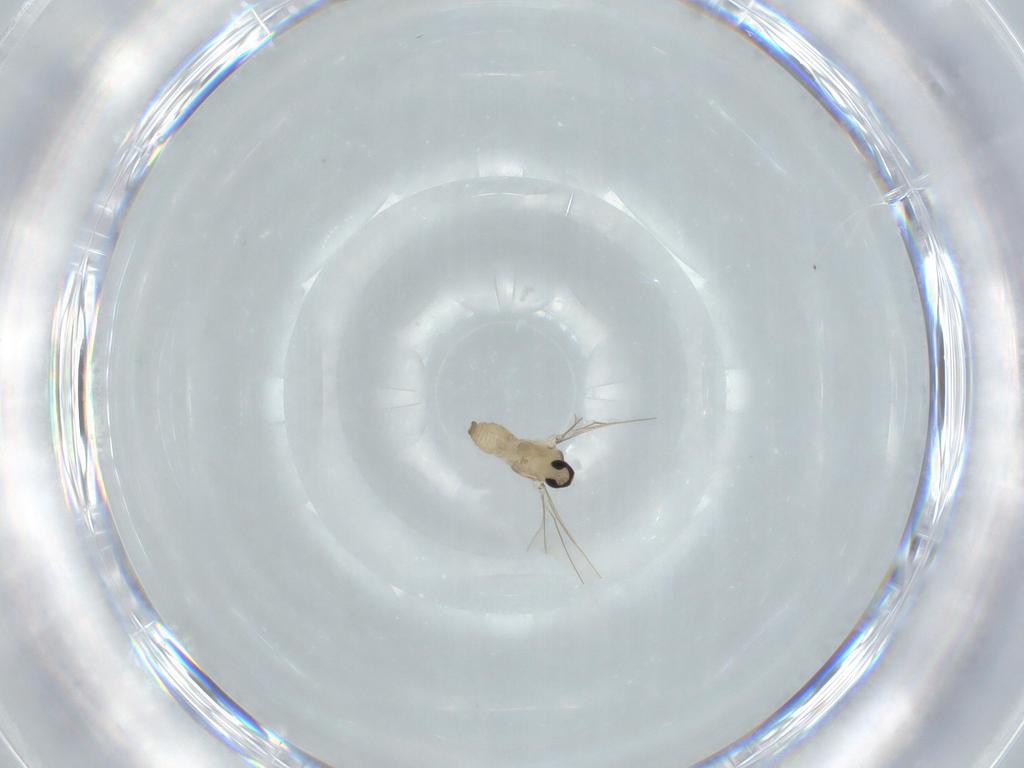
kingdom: Animalia
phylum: Arthropoda
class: Insecta
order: Diptera
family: Cecidomyiidae
